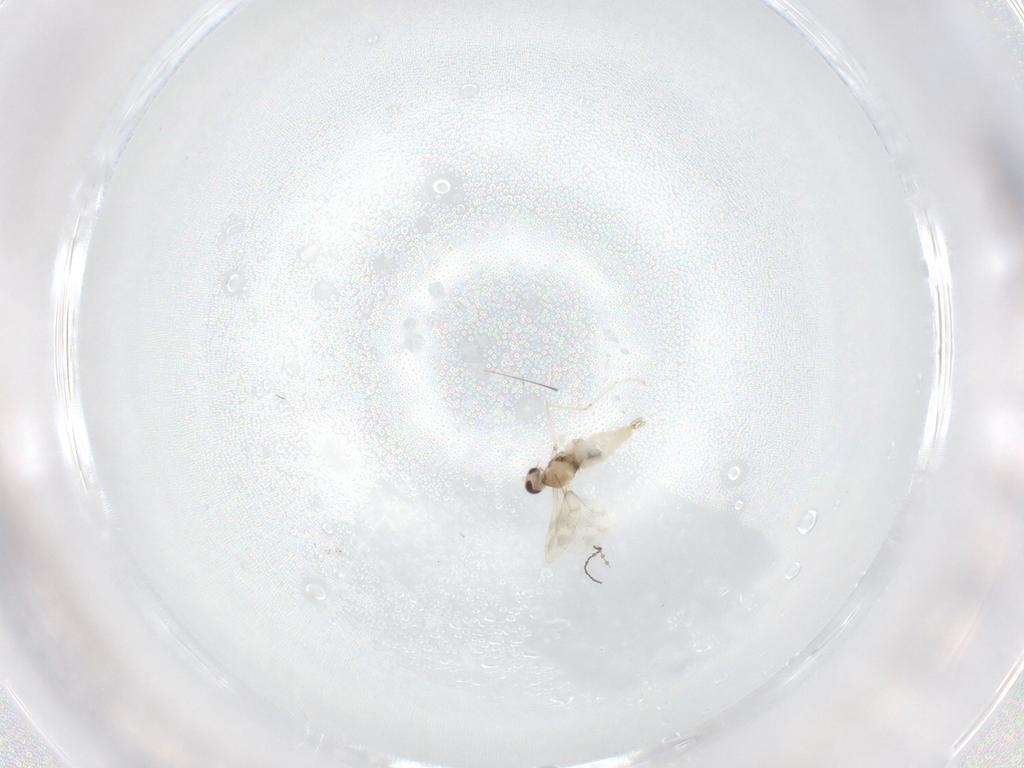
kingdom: Animalia
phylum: Arthropoda
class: Insecta
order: Diptera
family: Cecidomyiidae
